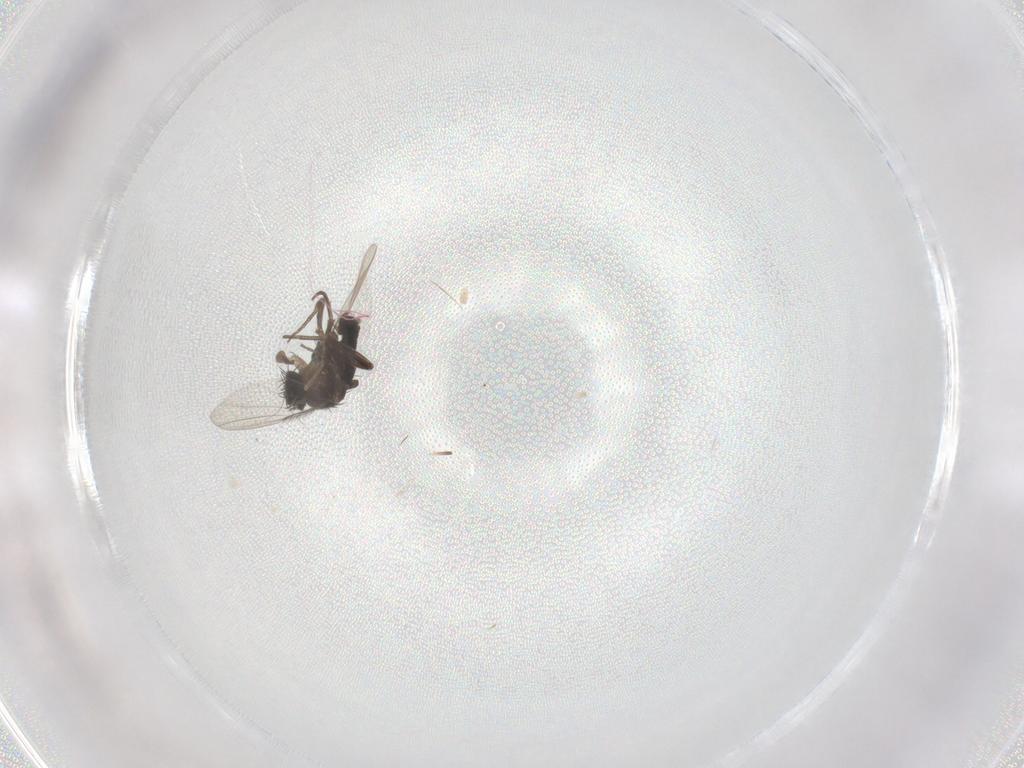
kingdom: Animalia
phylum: Arthropoda
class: Insecta
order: Diptera
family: Phoridae
